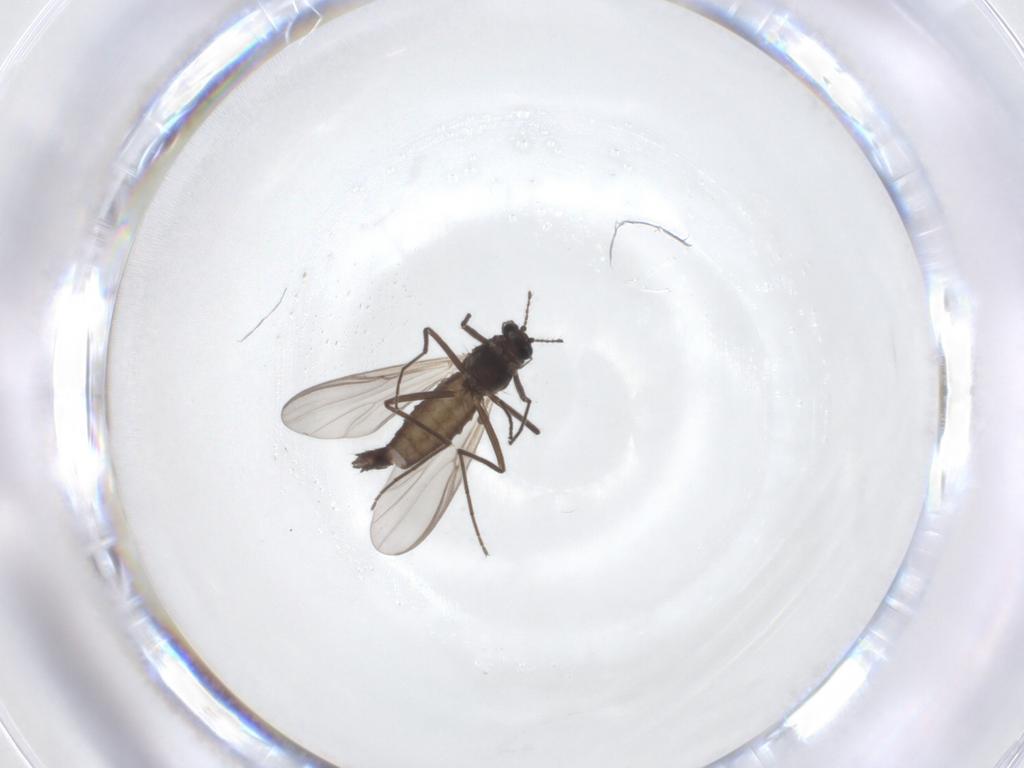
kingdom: Animalia
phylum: Arthropoda
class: Insecta
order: Diptera
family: Chironomidae
